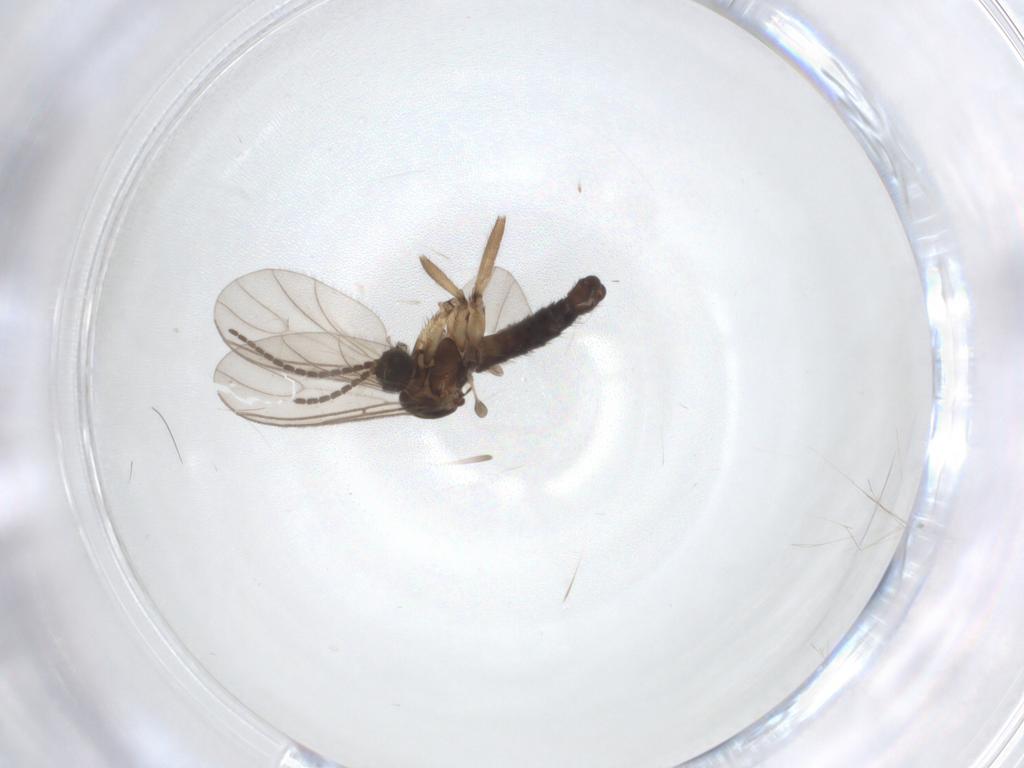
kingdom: Animalia
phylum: Arthropoda
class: Insecta
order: Diptera
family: Sciaridae
